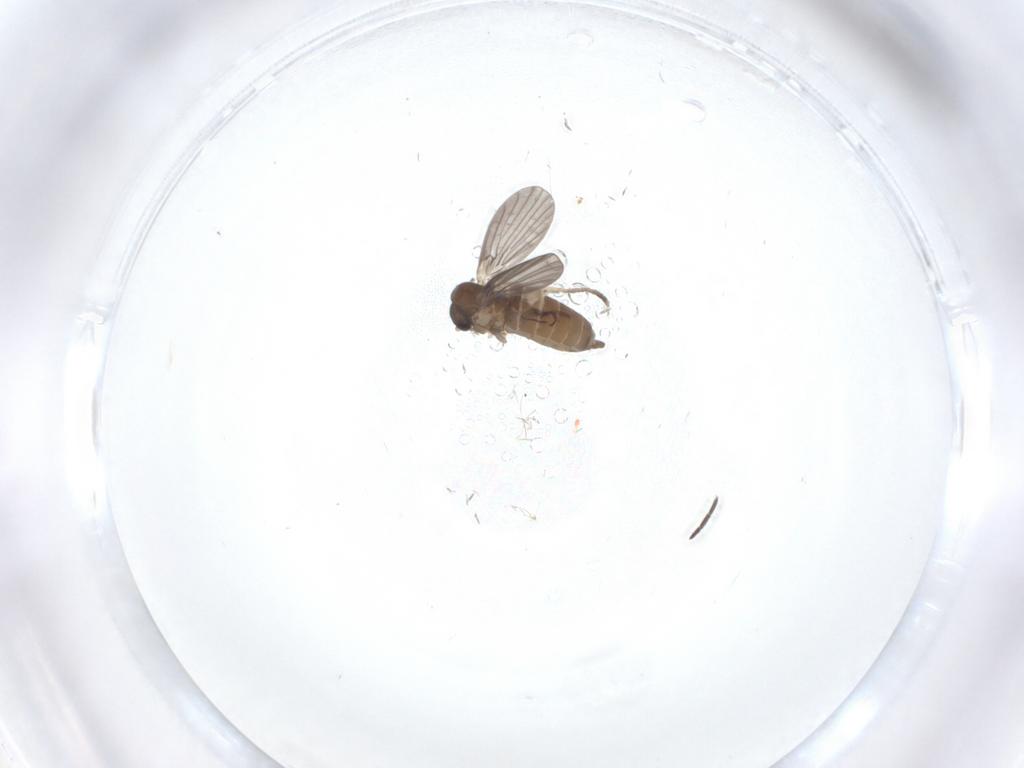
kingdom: Animalia
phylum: Arthropoda
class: Insecta
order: Diptera
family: Sciaridae
